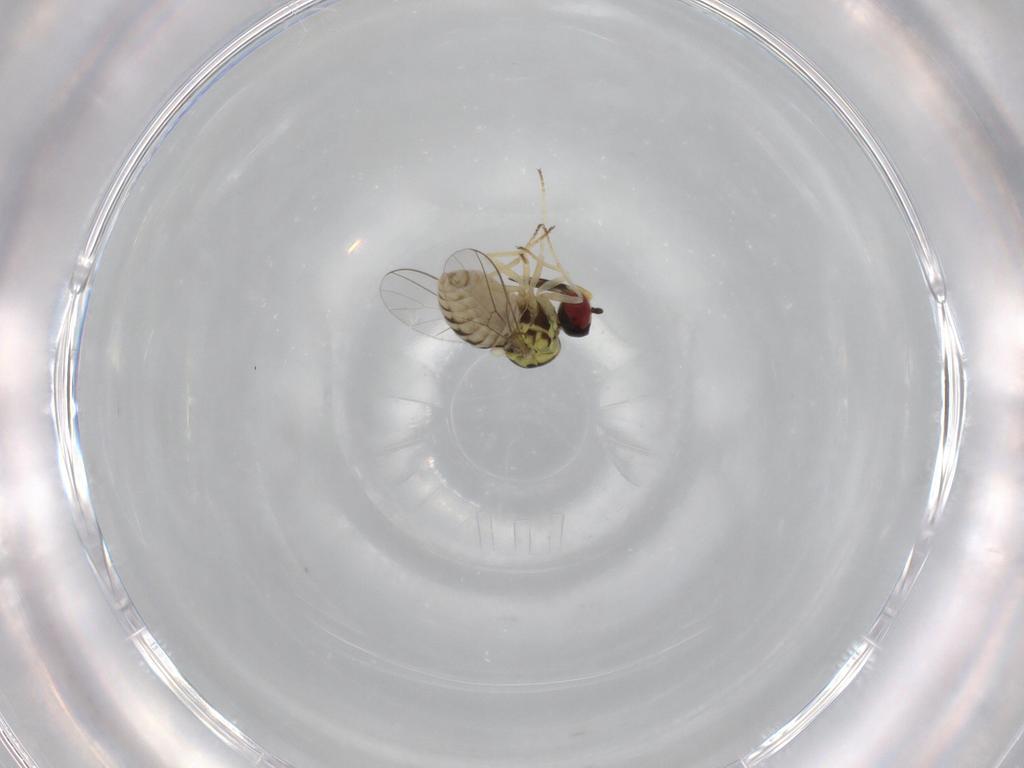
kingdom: Animalia
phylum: Arthropoda
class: Insecta
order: Diptera
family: Bombyliidae
